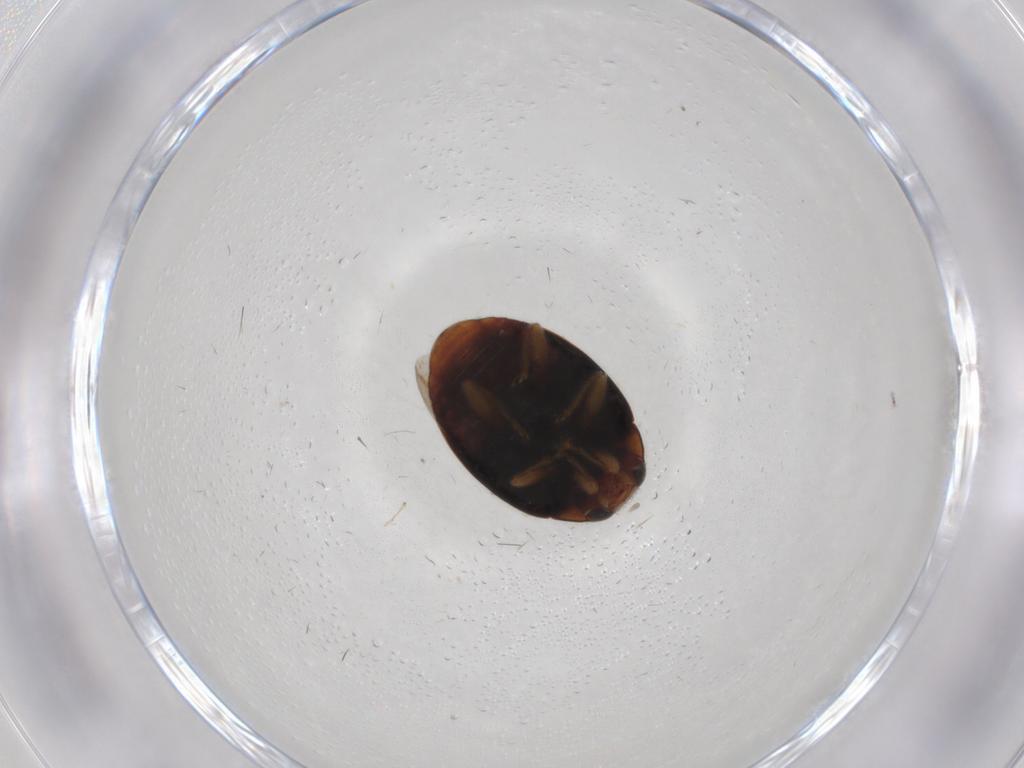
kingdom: Animalia
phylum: Arthropoda
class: Insecta
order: Coleoptera
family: Coccinellidae
